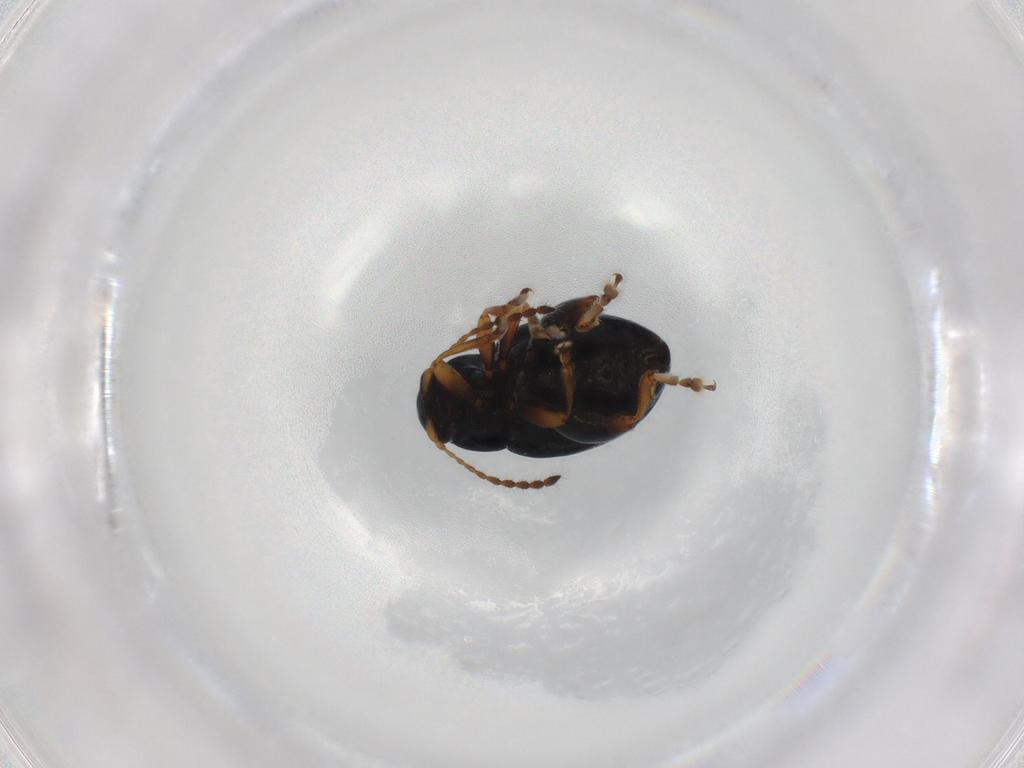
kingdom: Animalia
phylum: Arthropoda
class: Insecta
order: Coleoptera
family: Chrysomelidae
